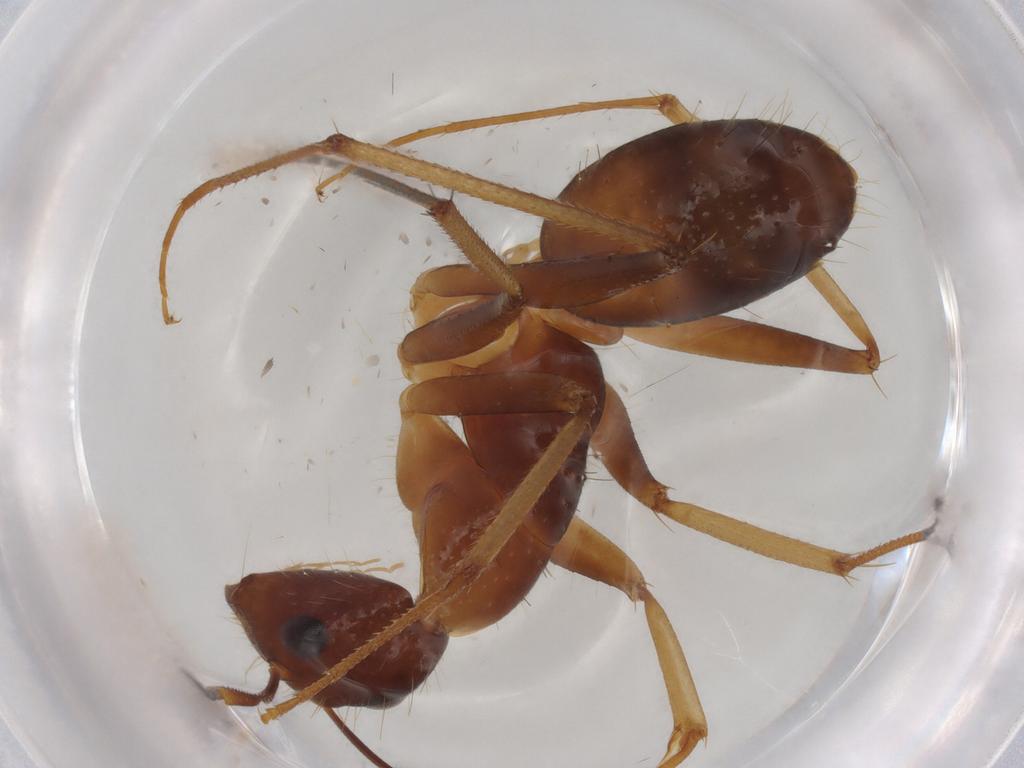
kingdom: Animalia
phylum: Arthropoda
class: Insecta
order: Hymenoptera
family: Formicidae
